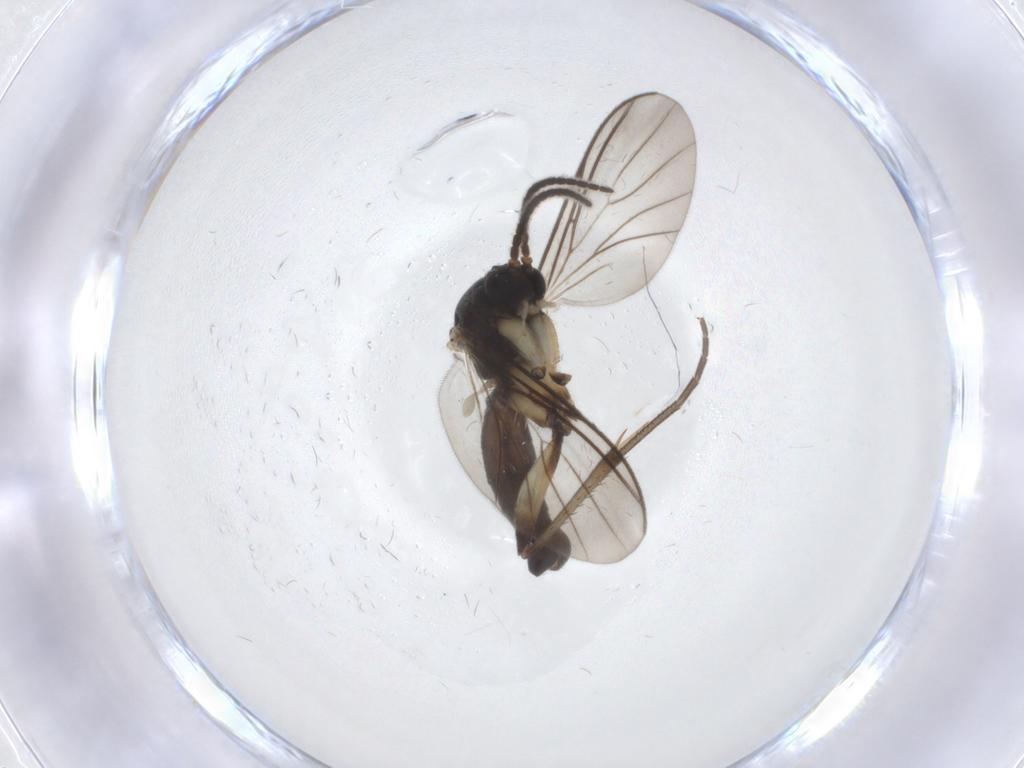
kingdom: Animalia
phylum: Arthropoda
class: Insecta
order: Diptera
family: Mycetophilidae
